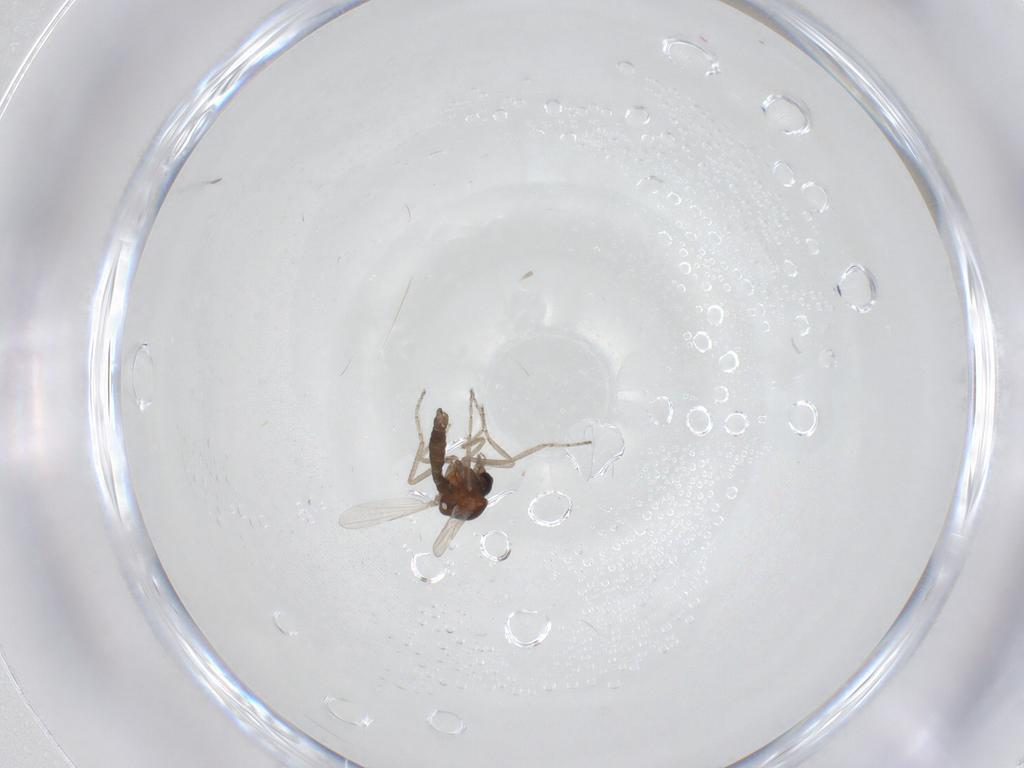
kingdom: Animalia
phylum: Arthropoda
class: Insecta
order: Diptera
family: Ceratopogonidae
